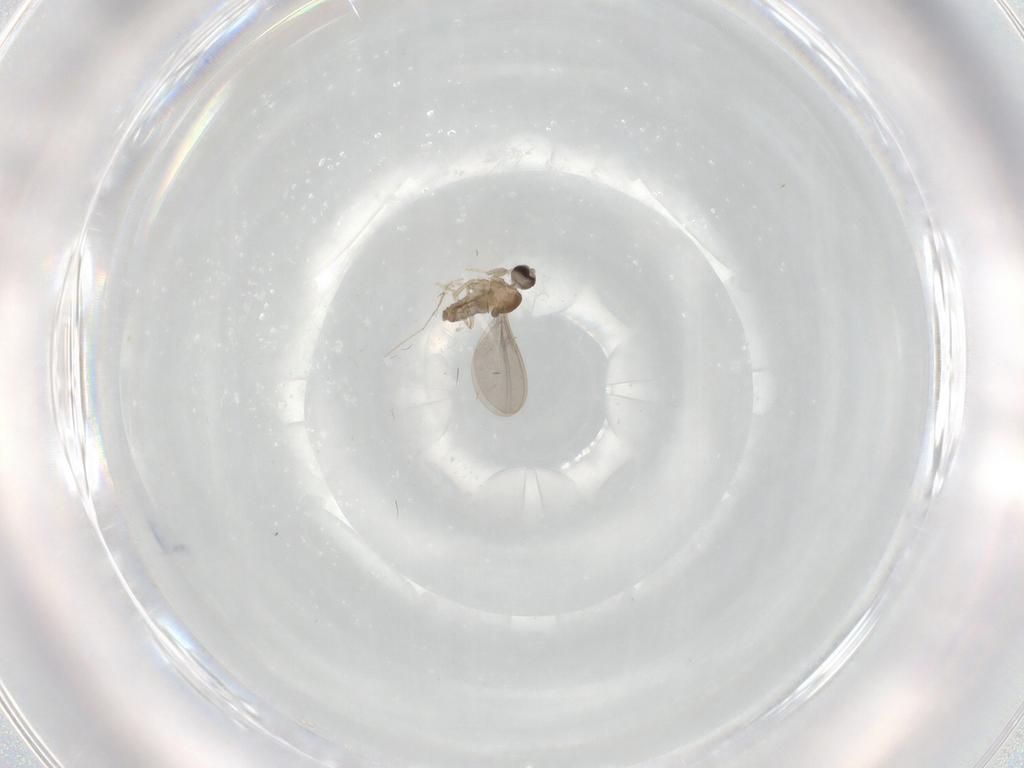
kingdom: Animalia
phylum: Arthropoda
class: Insecta
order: Diptera
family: Cecidomyiidae
